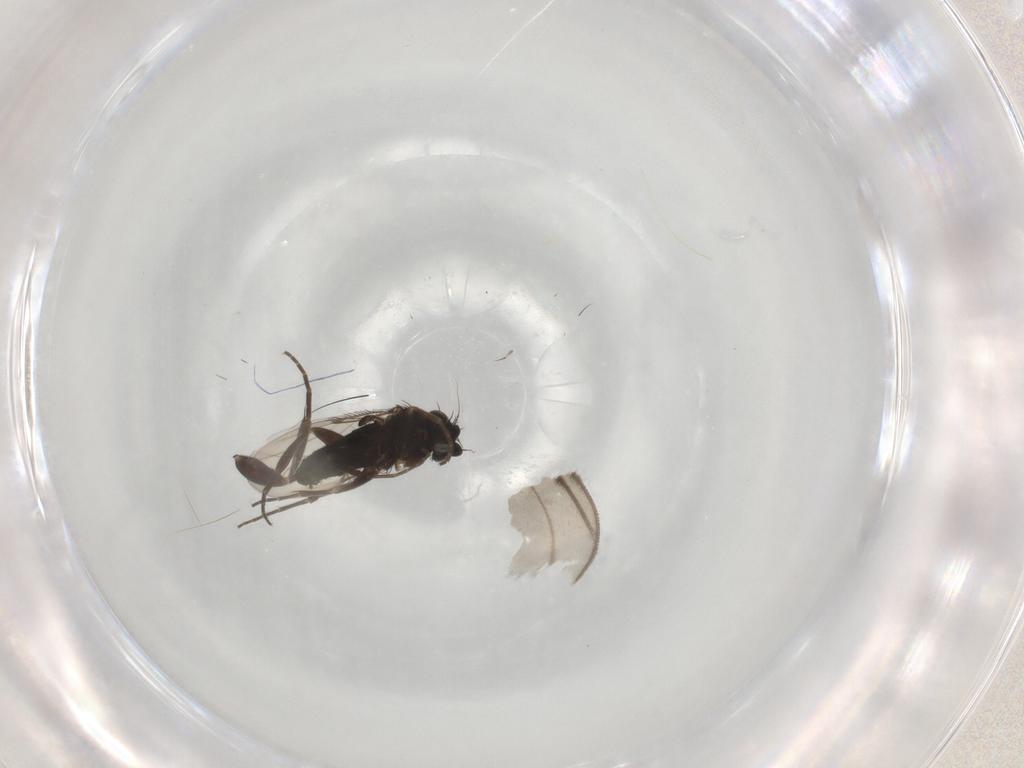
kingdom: Animalia
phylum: Arthropoda
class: Insecta
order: Diptera
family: Phoridae
